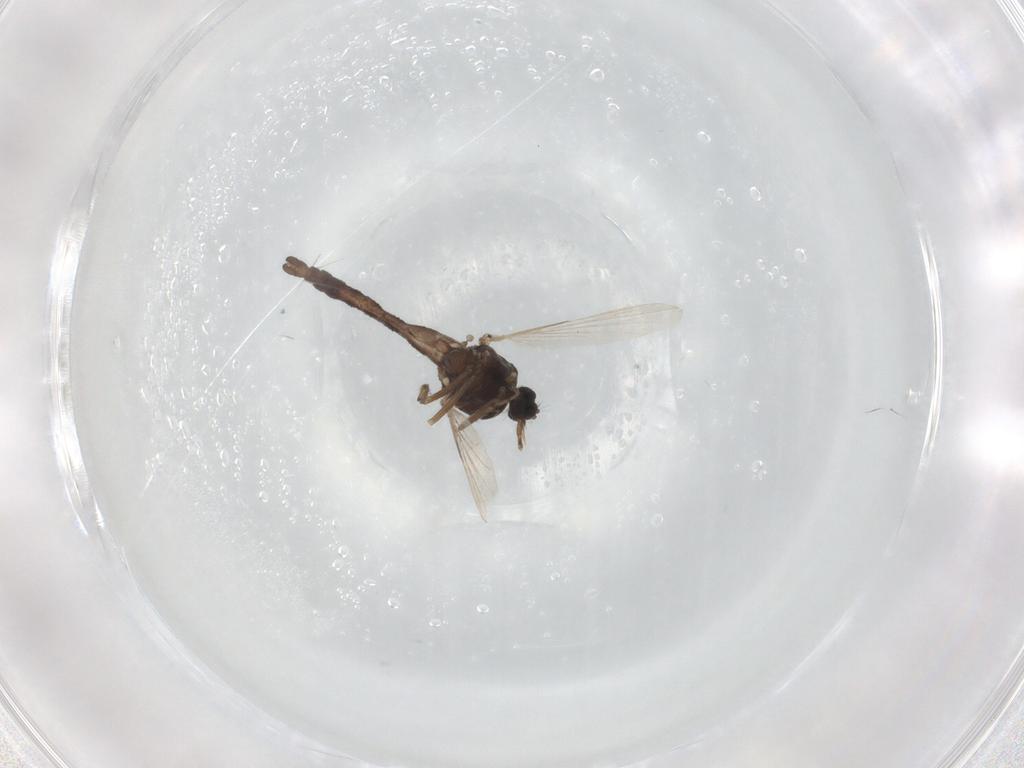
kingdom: Animalia
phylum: Arthropoda
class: Insecta
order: Diptera
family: Ceratopogonidae
